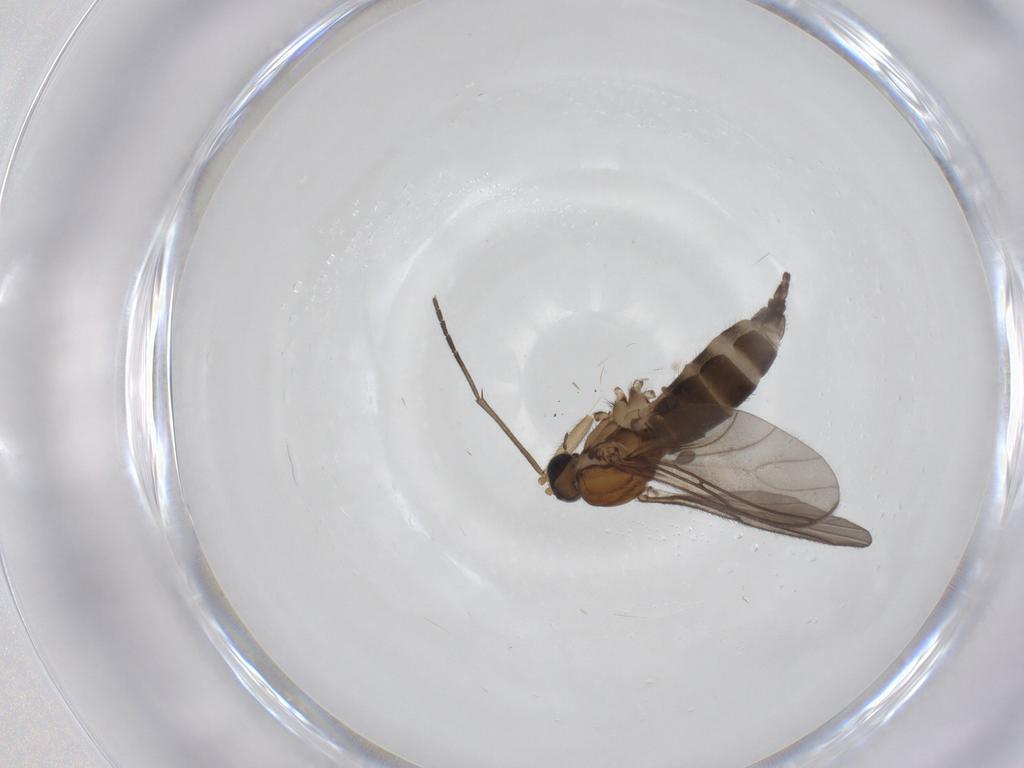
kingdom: Animalia
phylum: Arthropoda
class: Insecta
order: Diptera
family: Sciaridae
